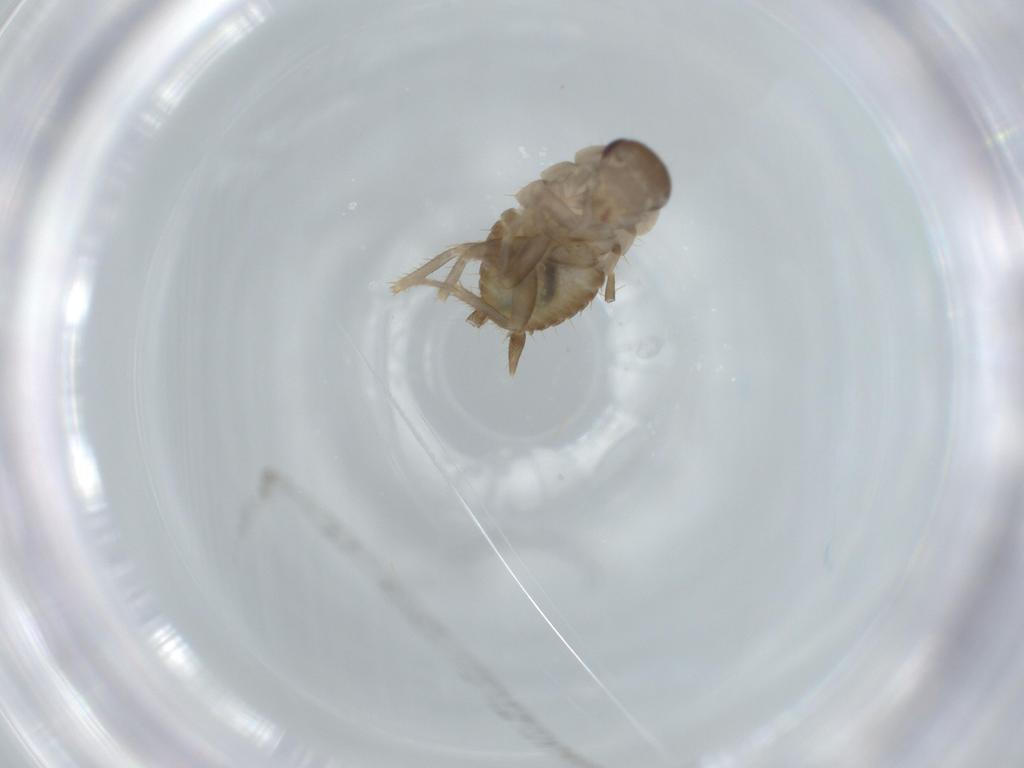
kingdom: Animalia
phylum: Arthropoda
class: Insecta
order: Blattodea
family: Ectobiidae
